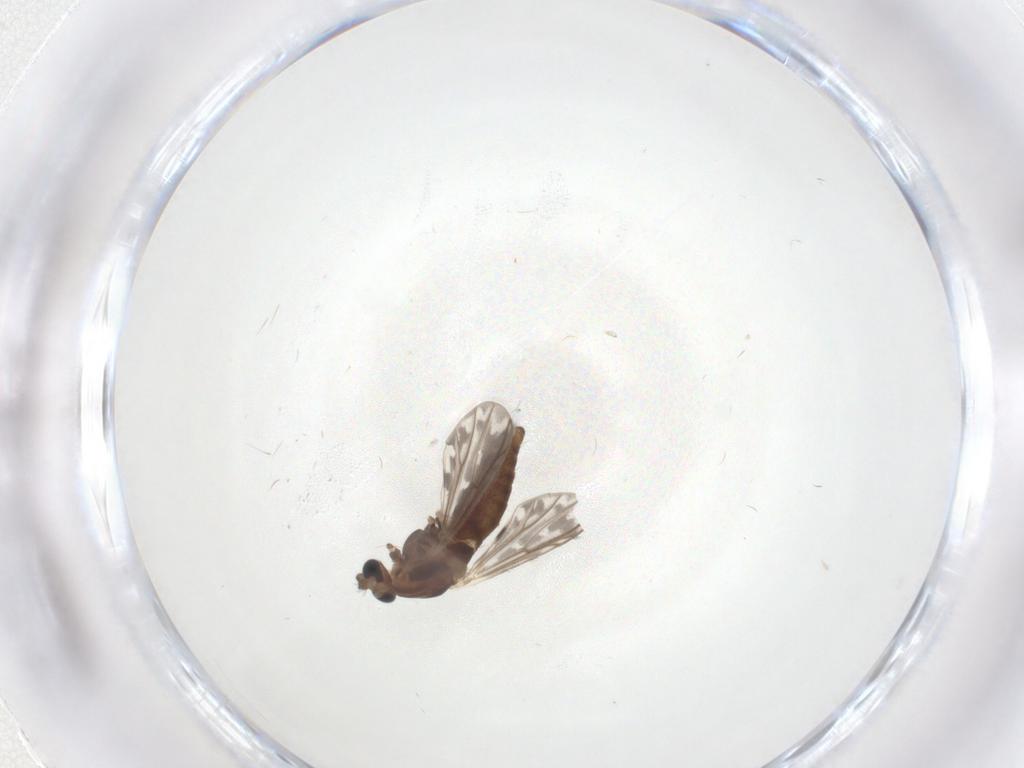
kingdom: Animalia
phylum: Arthropoda
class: Insecta
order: Diptera
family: Chironomidae
